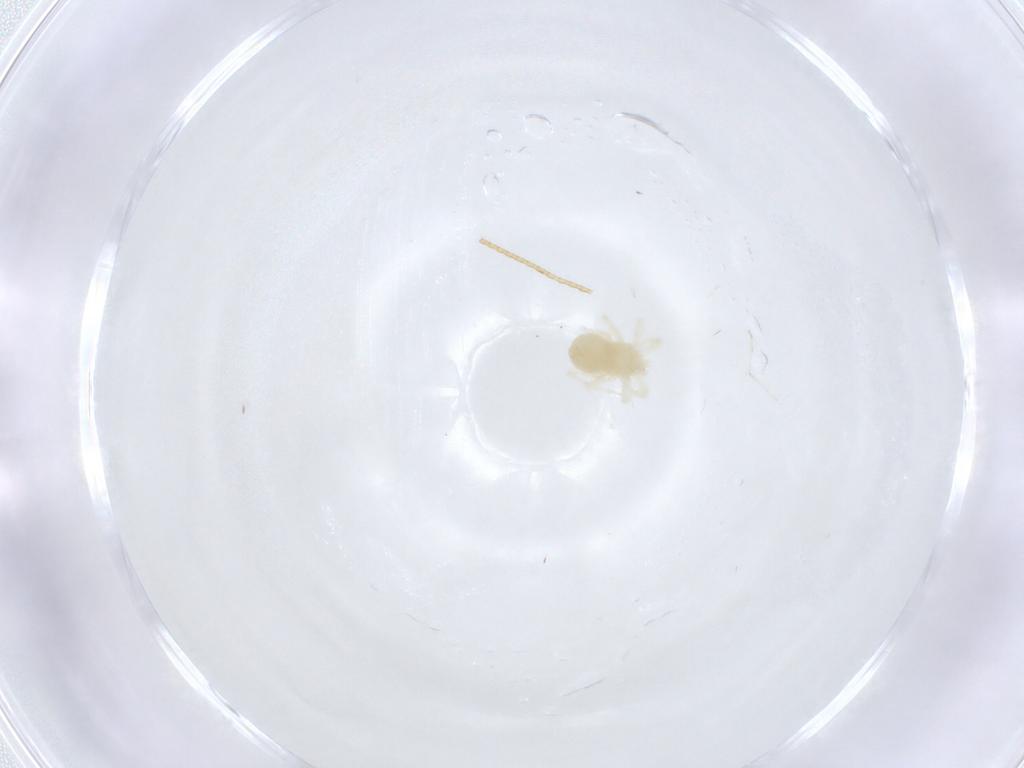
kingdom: Animalia
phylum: Arthropoda
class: Arachnida
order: Trombidiformes
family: Anystidae
